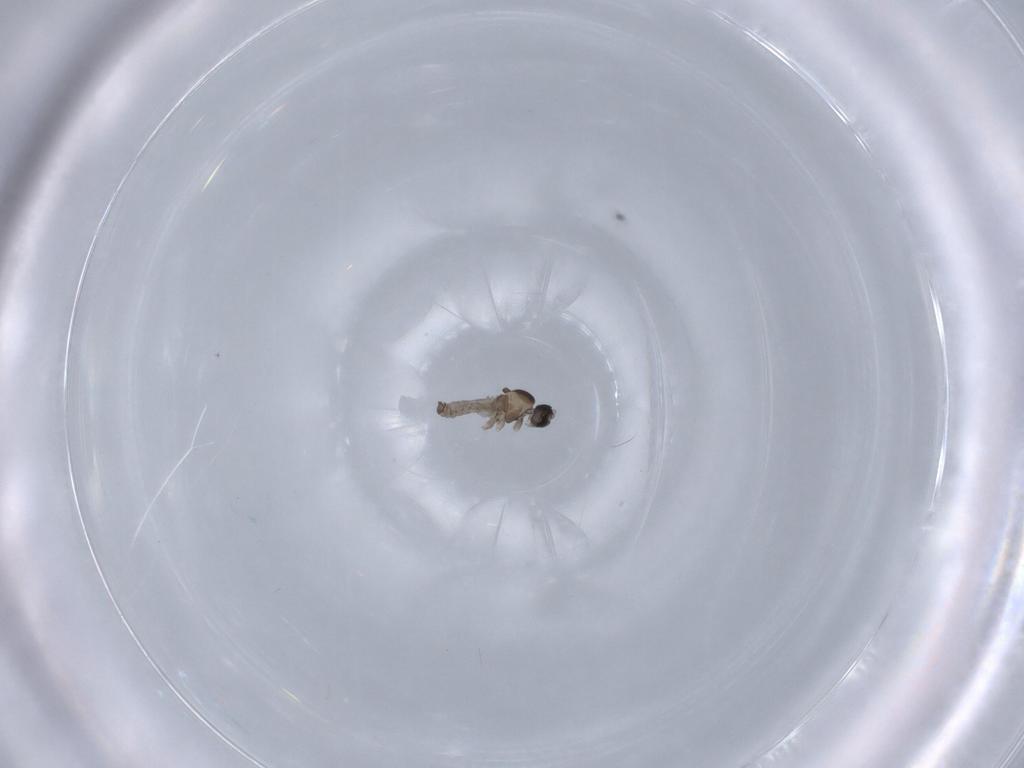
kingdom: Animalia
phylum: Arthropoda
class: Insecta
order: Diptera
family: Cecidomyiidae
